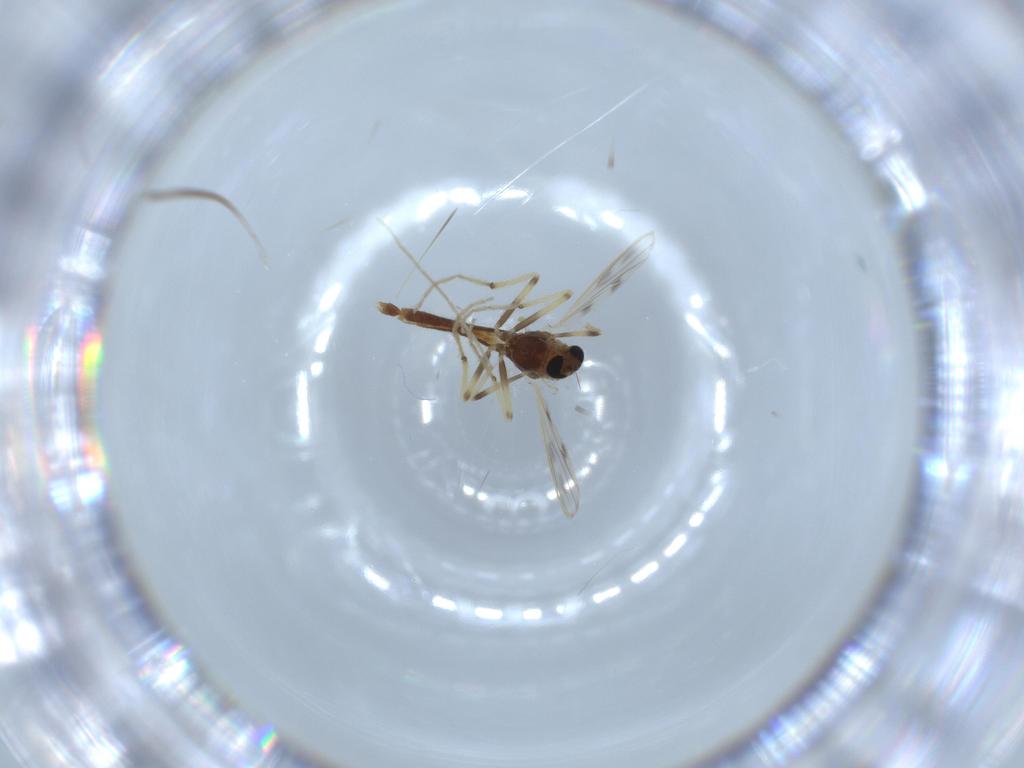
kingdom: Animalia
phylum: Arthropoda
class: Insecta
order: Diptera
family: Chironomidae
